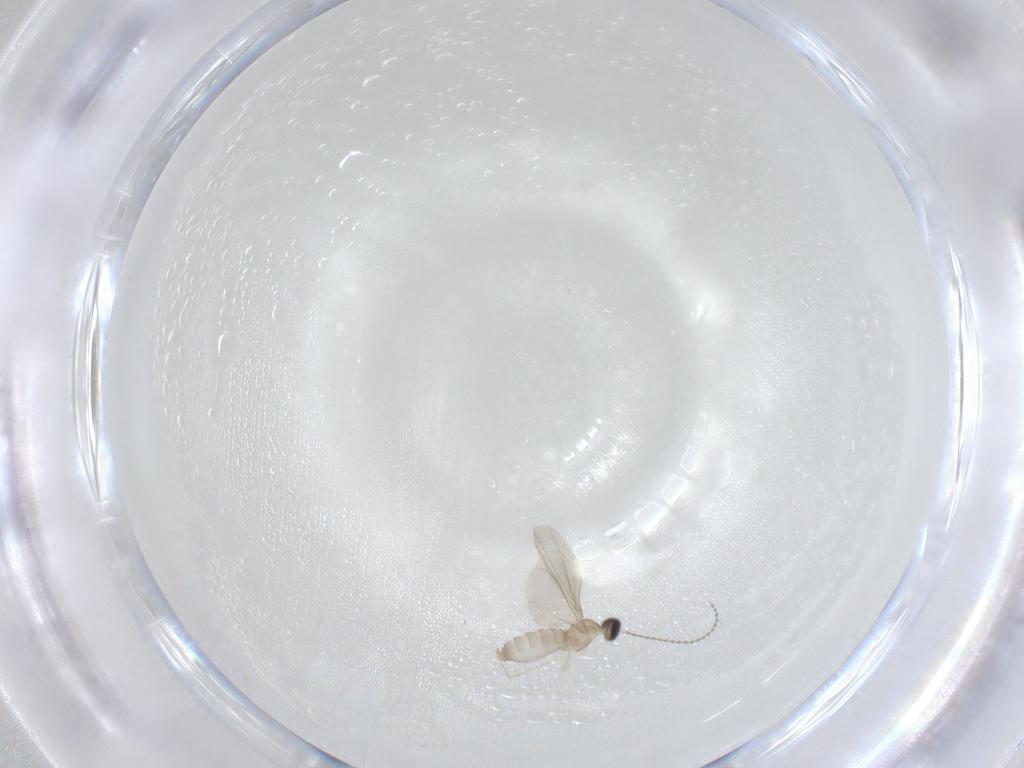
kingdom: Animalia
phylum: Arthropoda
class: Insecta
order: Diptera
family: Cecidomyiidae
